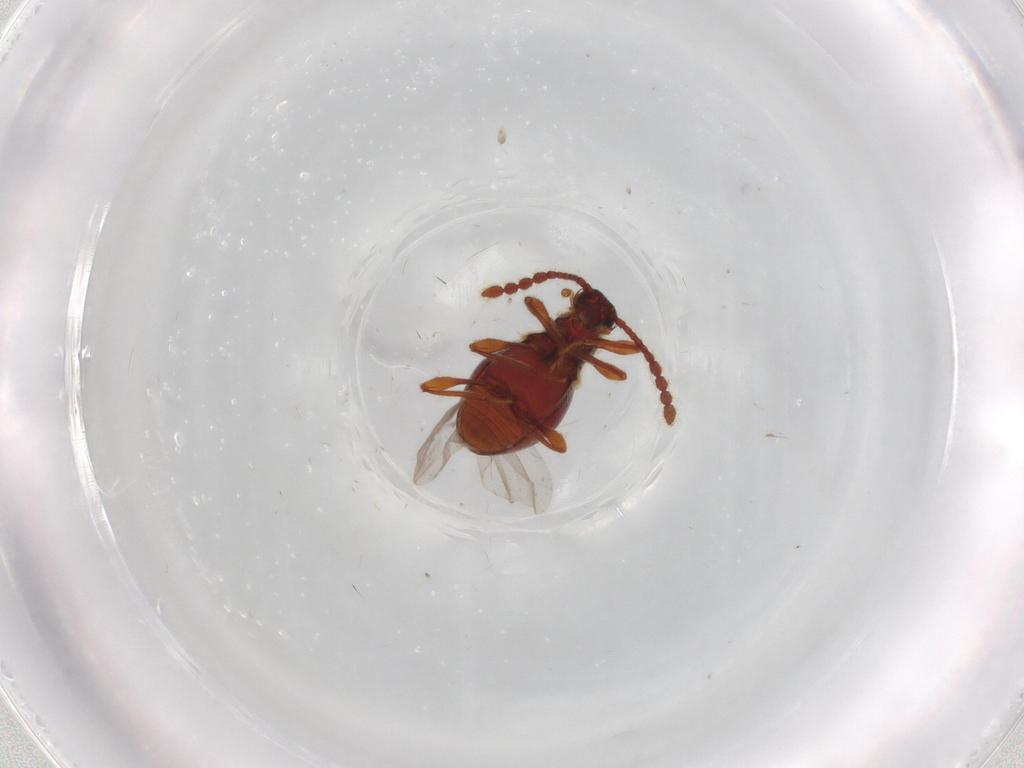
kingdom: Animalia
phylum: Arthropoda
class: Insecta
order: Coleoptera
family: Staphylinidae
